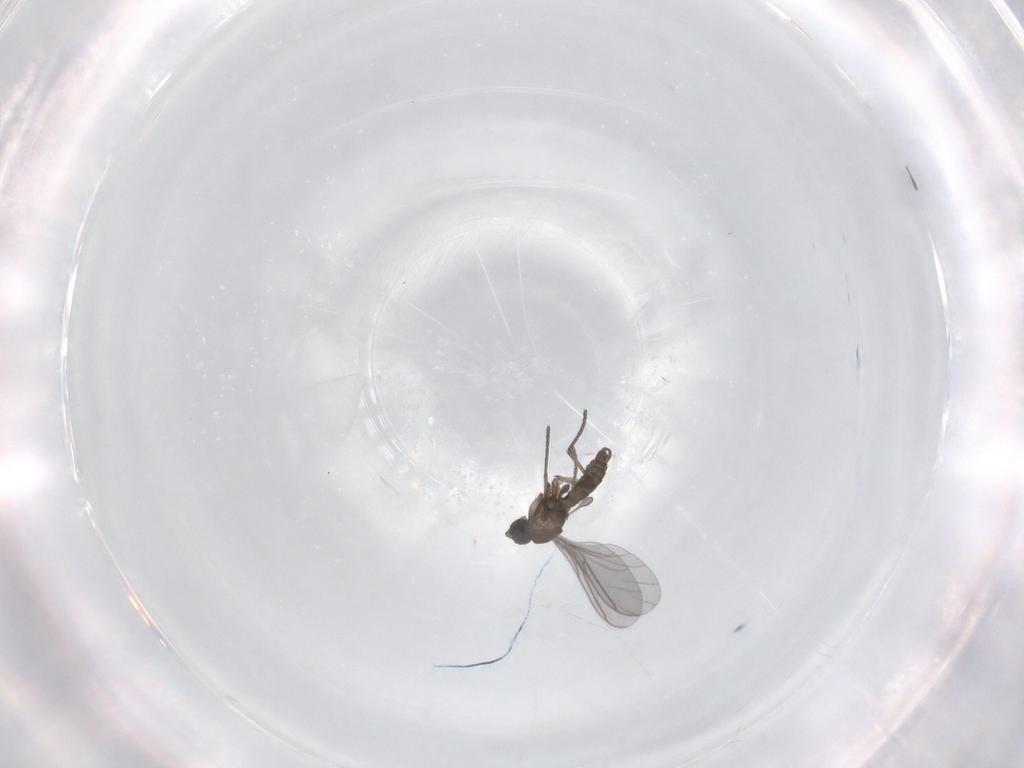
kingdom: Animalia
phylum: Arthropoda
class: Insecta
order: Diptera
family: Sciaridae
